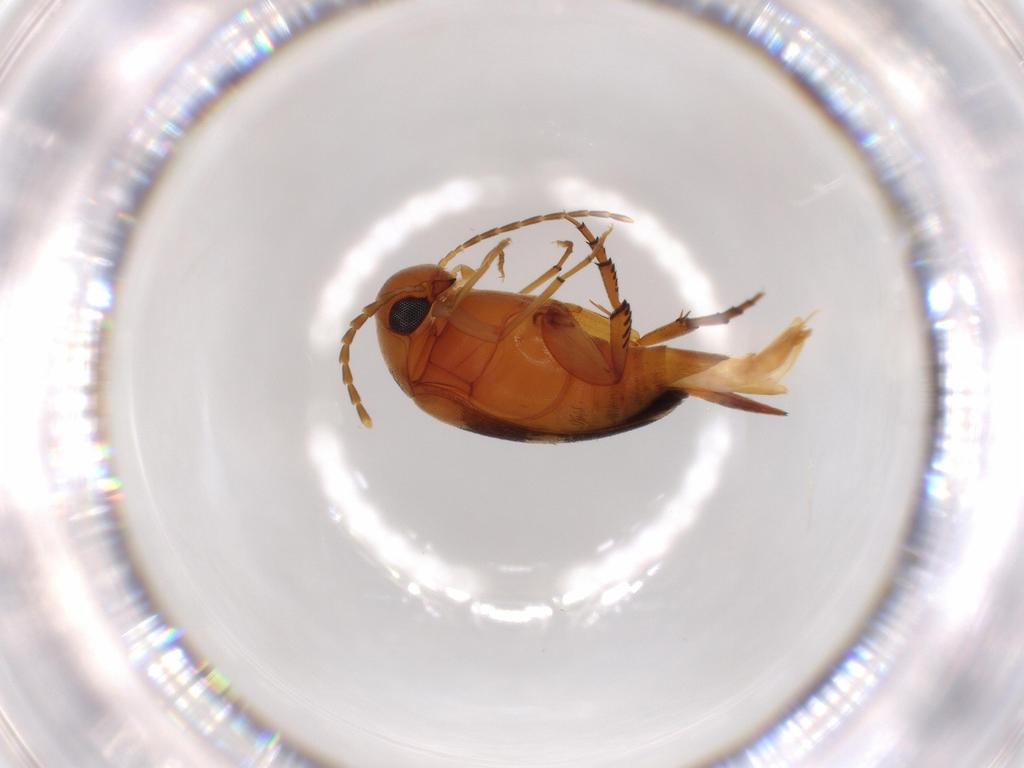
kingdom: Animalia
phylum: Arthropoda
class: Insecta
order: Coleoptera
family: Mordellidae
